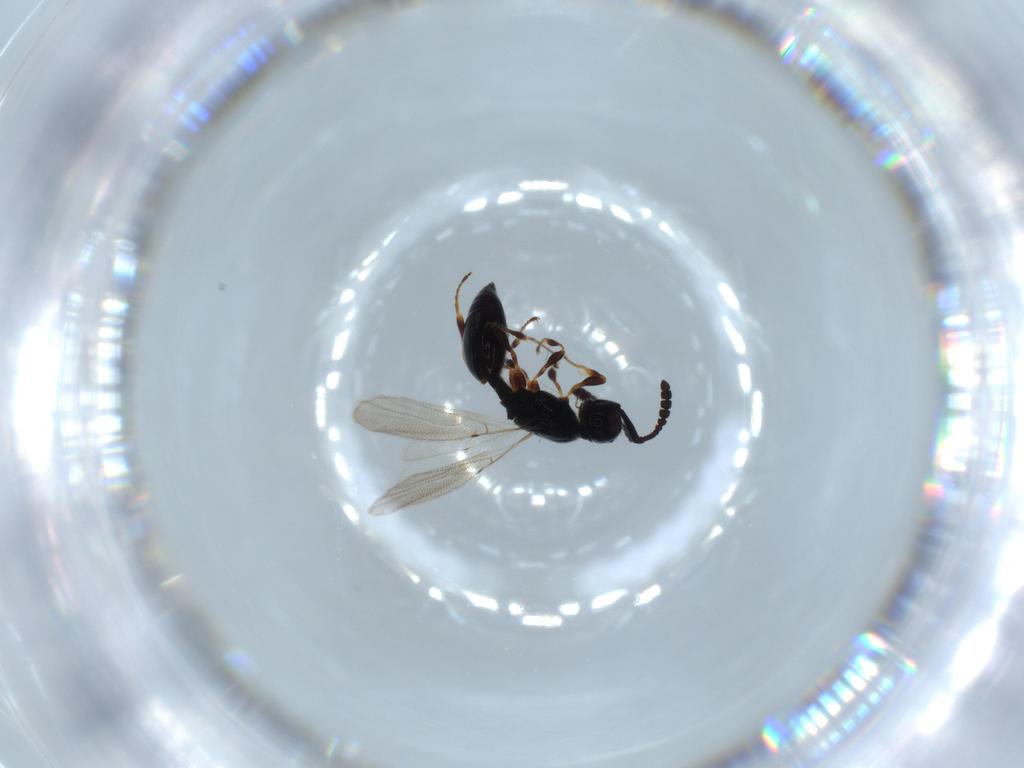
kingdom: Animalia
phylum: Arthropoda
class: Insecta
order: Hymenoptera
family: Diapriidae
